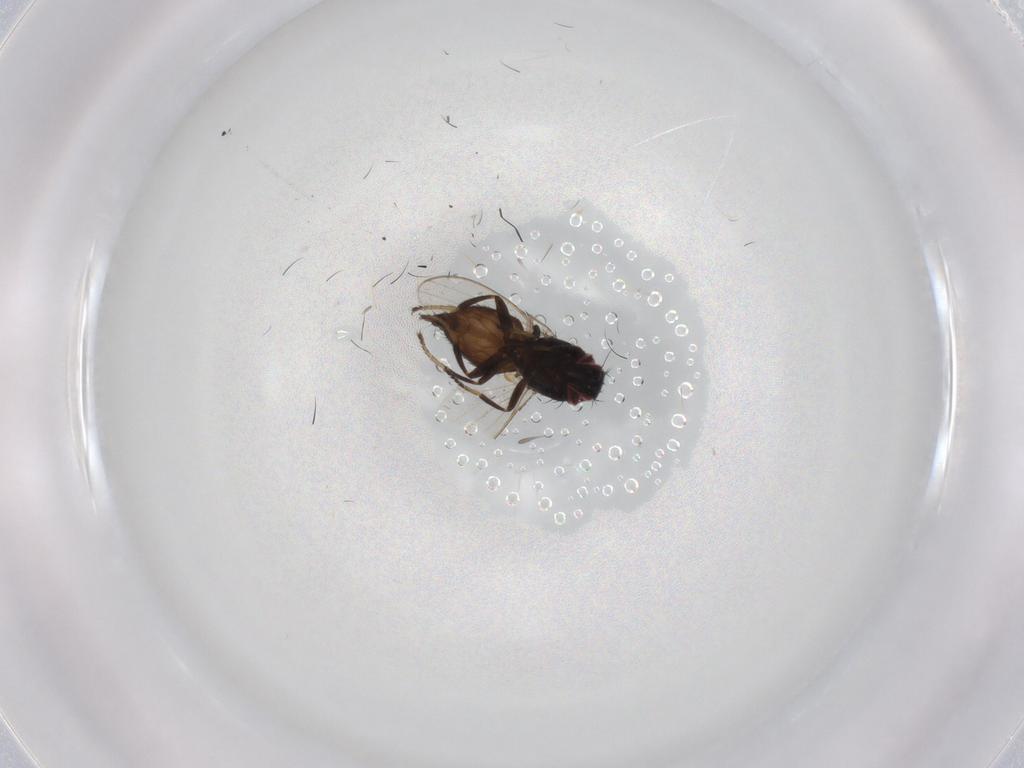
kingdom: Animalia
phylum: Arthropoda
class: Insecta
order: Diptera
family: Milichiidae
